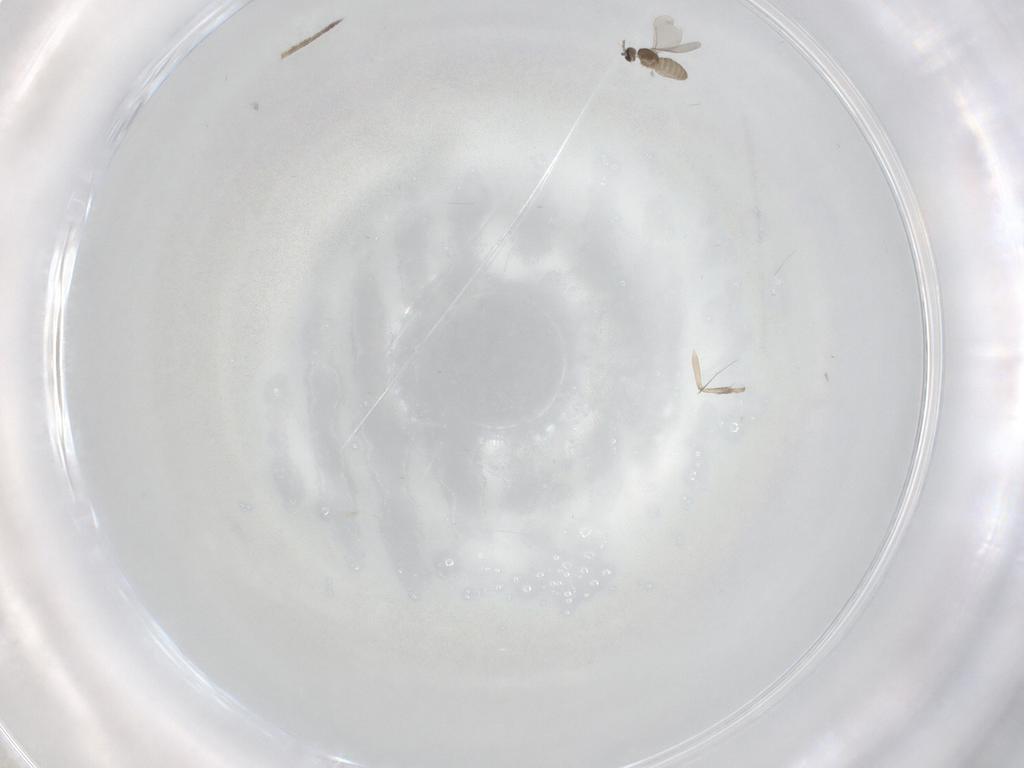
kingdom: Animalia
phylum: Arthropoda
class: Insecta
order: Diptera
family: Cecidomyiidae
